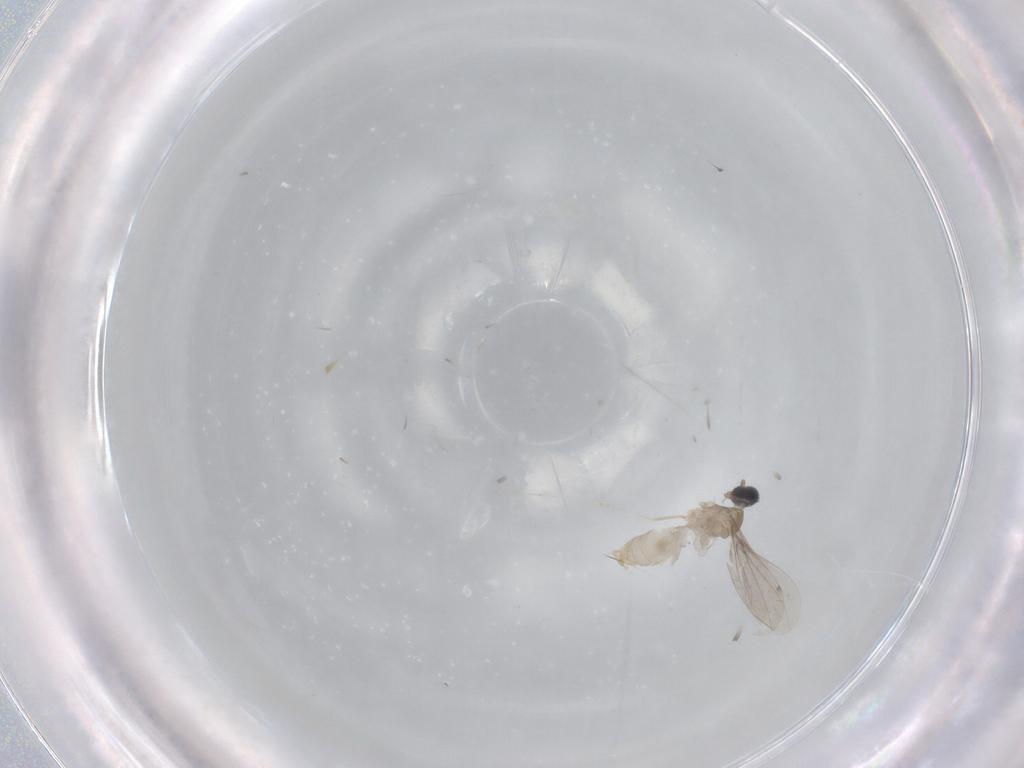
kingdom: Animalia
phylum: Arthropoda
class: Insecta
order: Diptera
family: Cecidomyiidae
